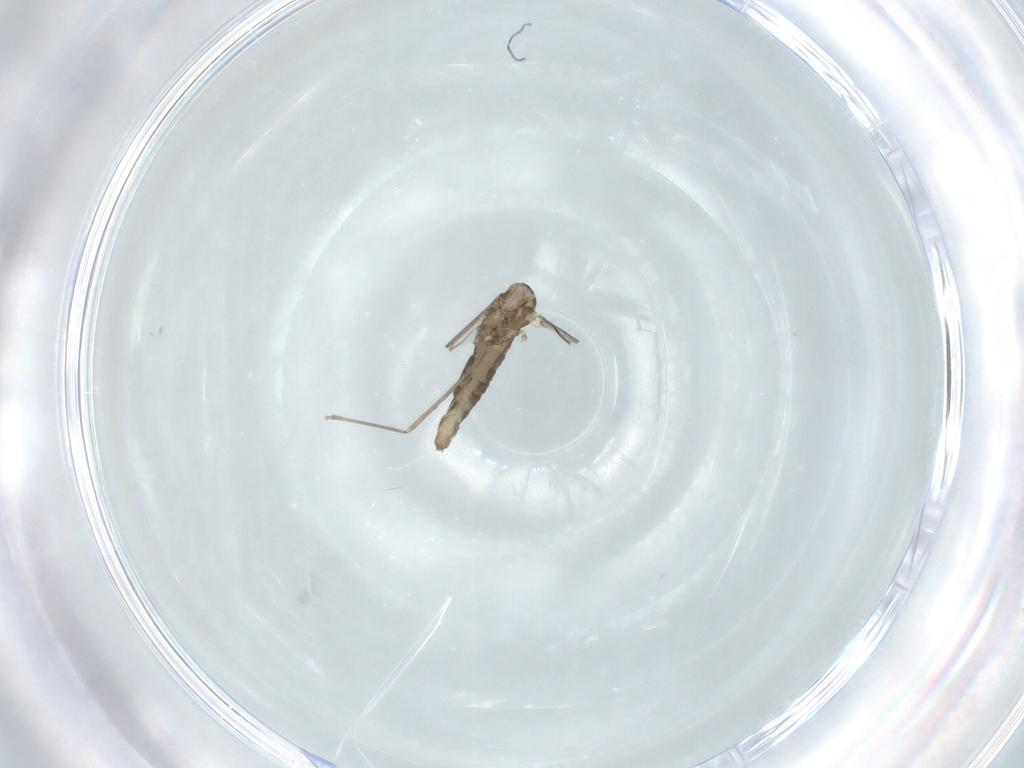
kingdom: Animalia
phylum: Arthropoda
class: Insecta
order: Diptera
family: Cecidomyiidae
